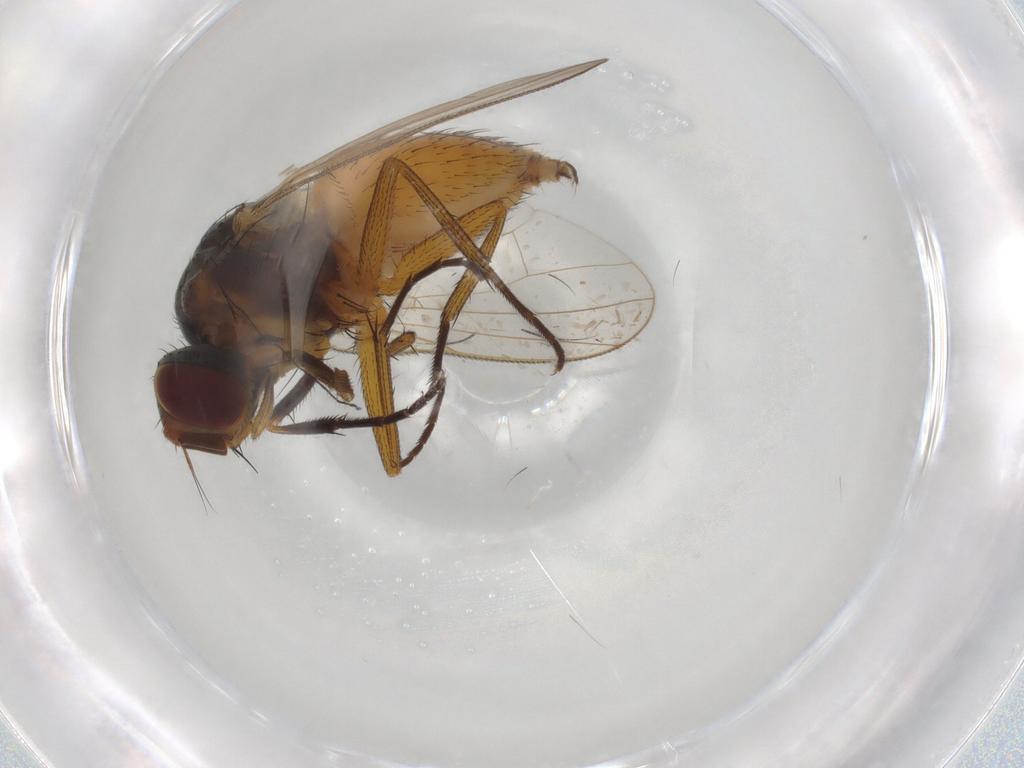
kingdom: Animalia
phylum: Arthropoda
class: Insecta
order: Diptera
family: Muscidae
